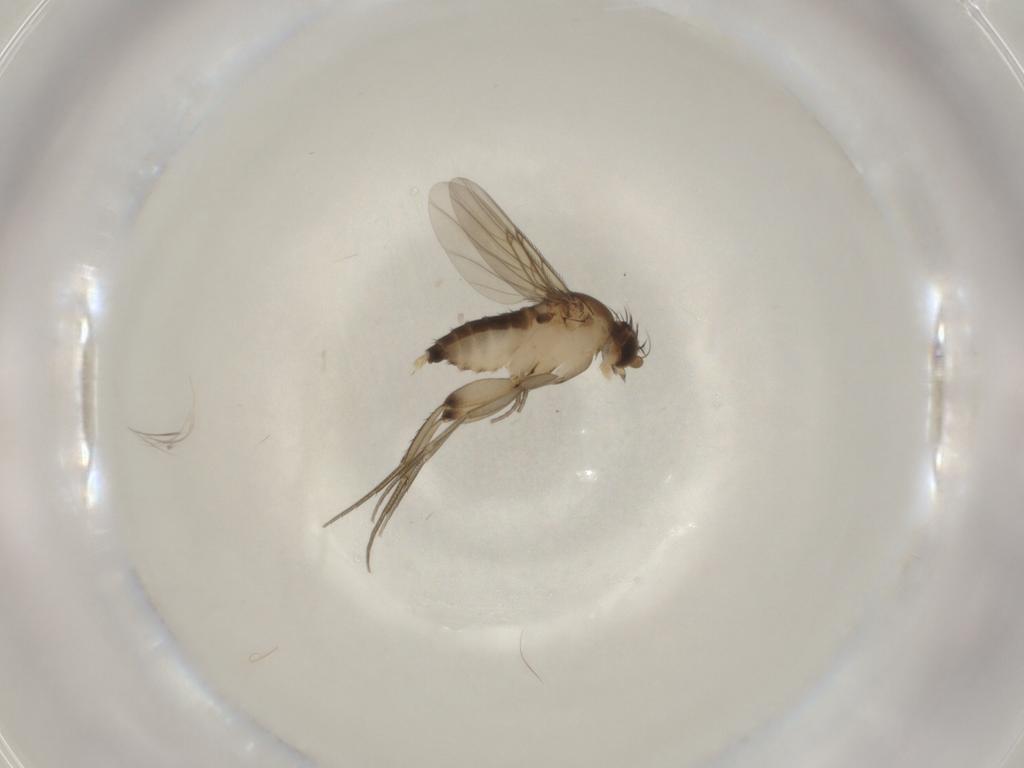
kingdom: Animalia
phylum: Arthropoda
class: Insecta
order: Diptera
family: Phoridae
